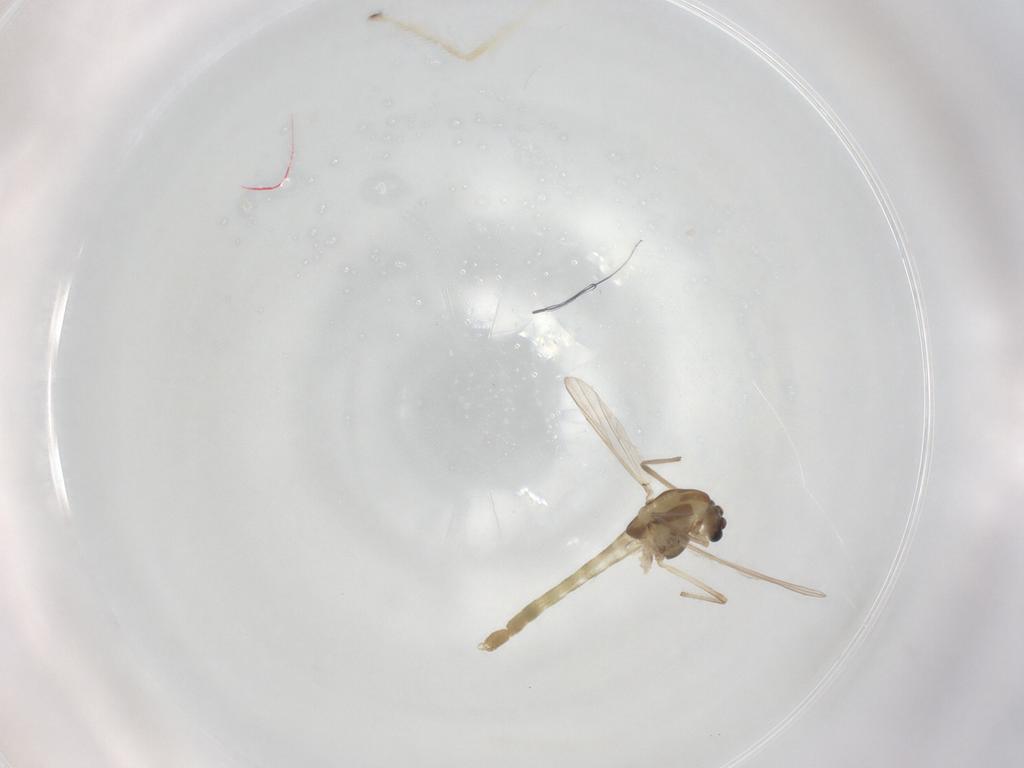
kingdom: Animalia
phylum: Arthropoda
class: Insecta
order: Diptera
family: Chironomidae
